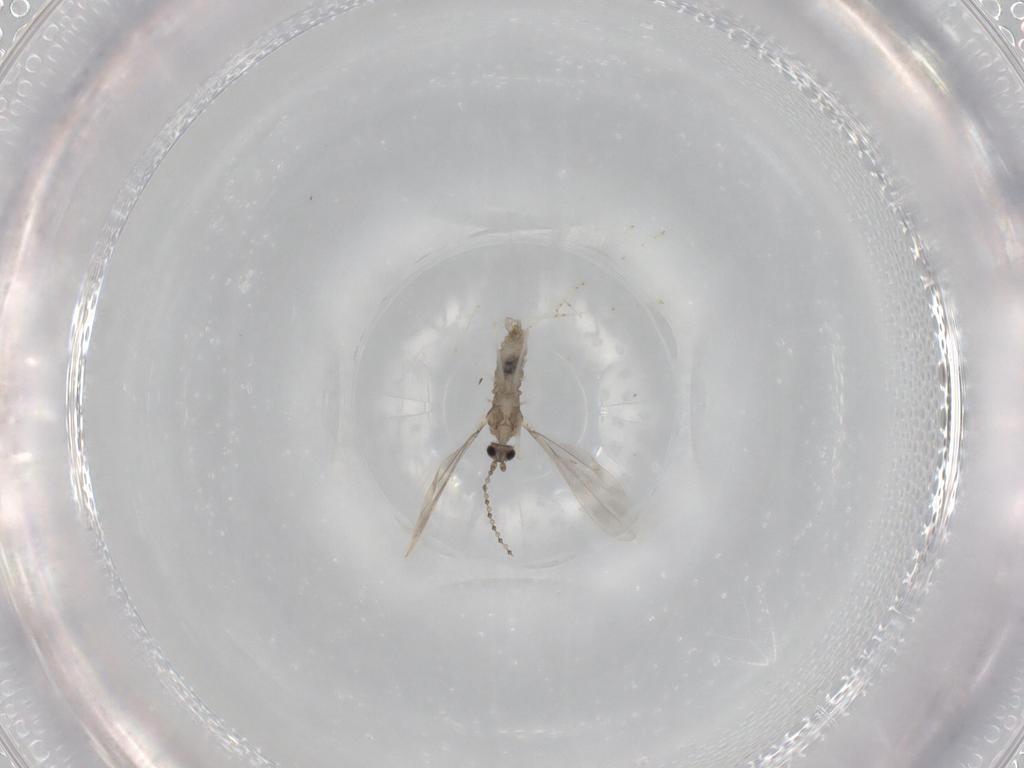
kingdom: Animalia
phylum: Arthropoda
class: Insecta
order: Diptera
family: Cecidomyiidae
